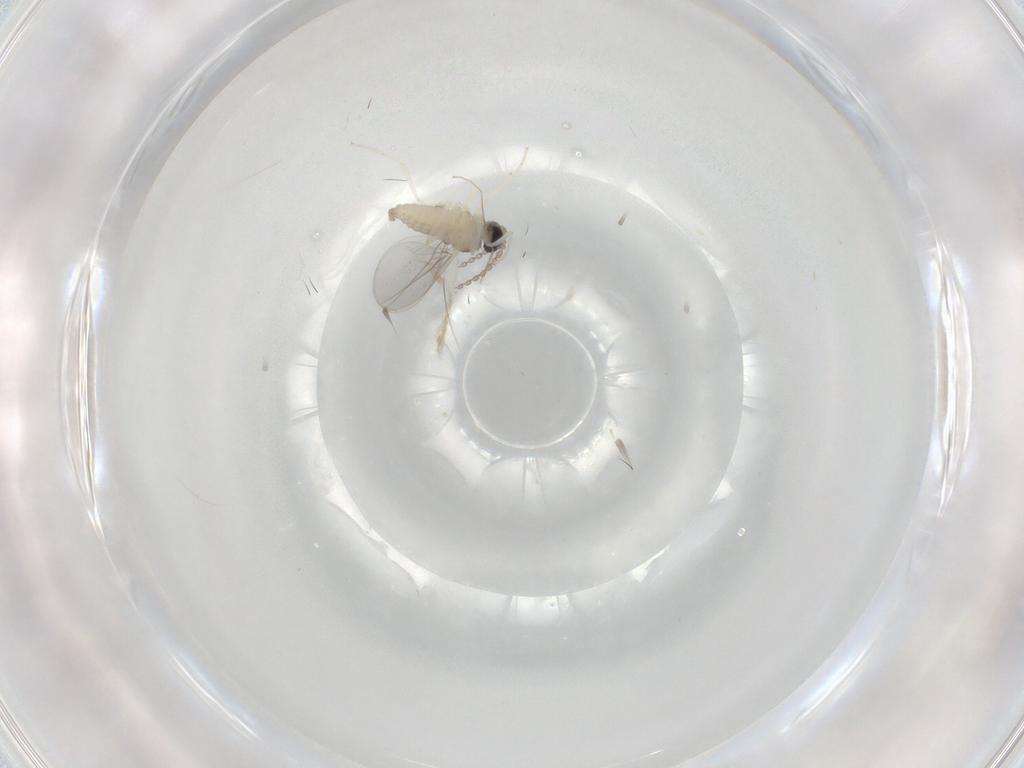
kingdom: Animalia
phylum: Arthropoda
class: Insecta
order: Diptera
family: Cecidomyiidae
